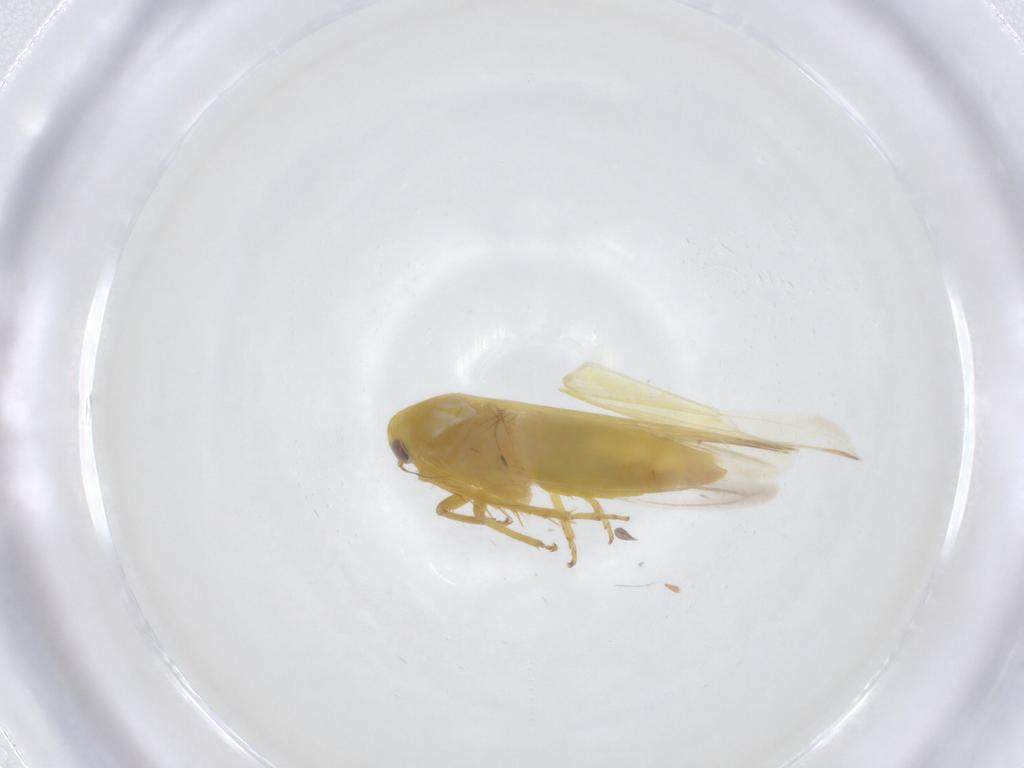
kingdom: Animalia
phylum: Arthropoda
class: Insecta
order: Hemiptera
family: Cicadellidae
